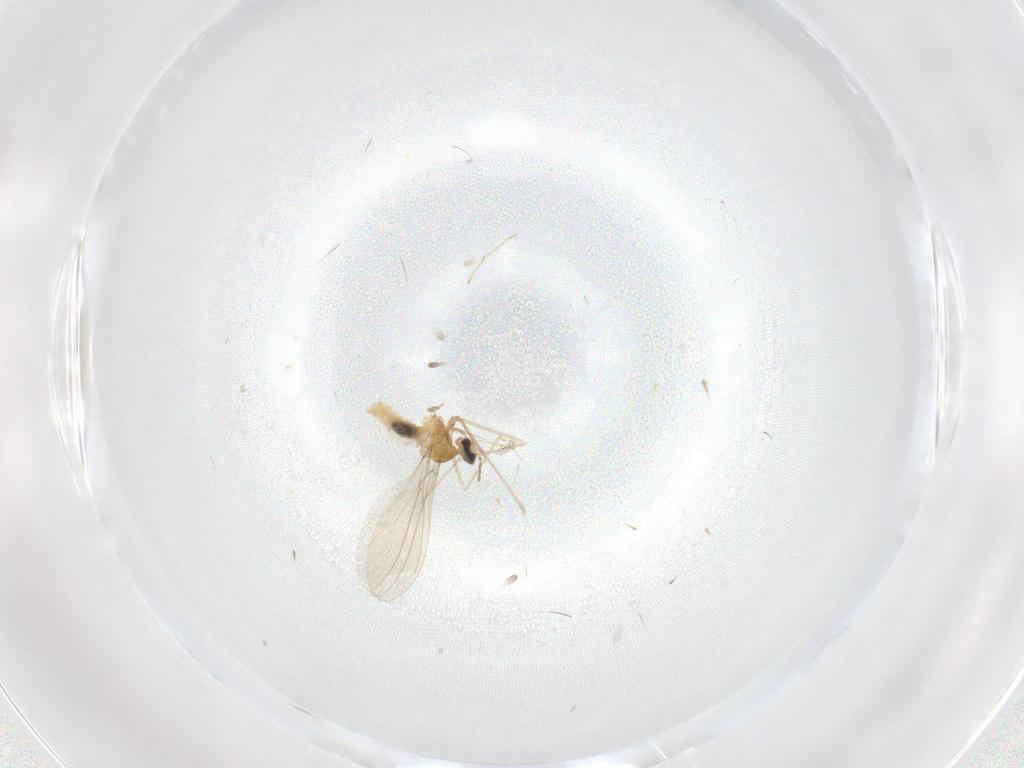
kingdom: Animalia
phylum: Arthropoda
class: Insecta
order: Diptera
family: Cecidomyiidae
